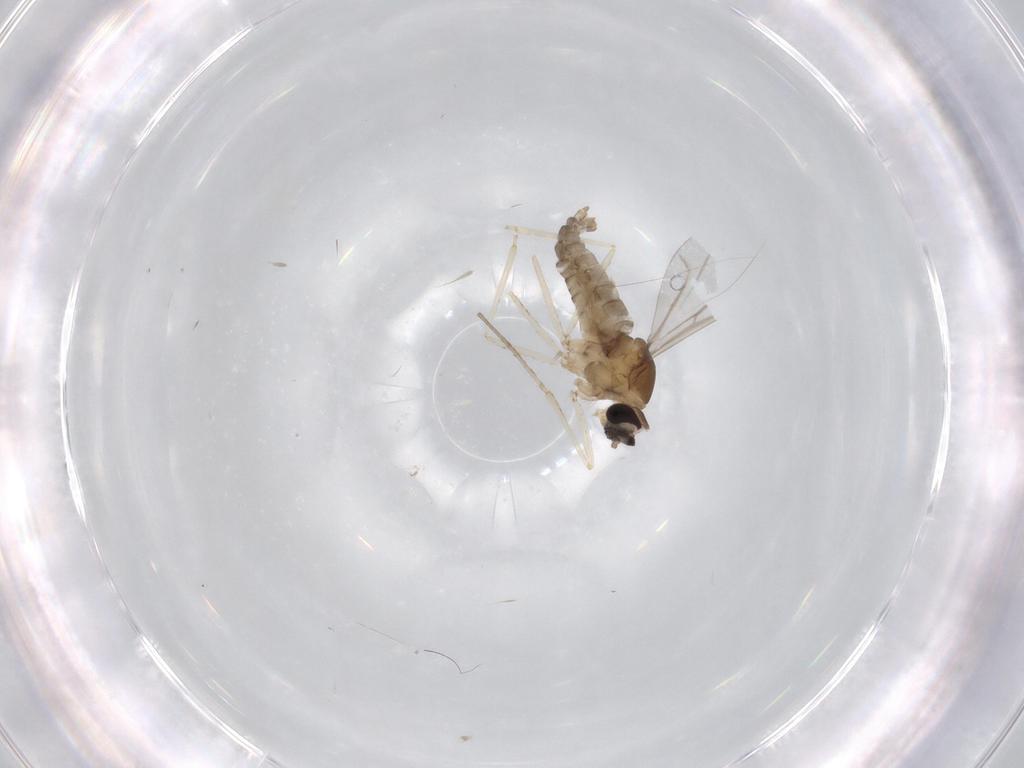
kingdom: Animalia
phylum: Arthropoda
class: Insecta
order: Diptera
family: Cecidomyiidae
